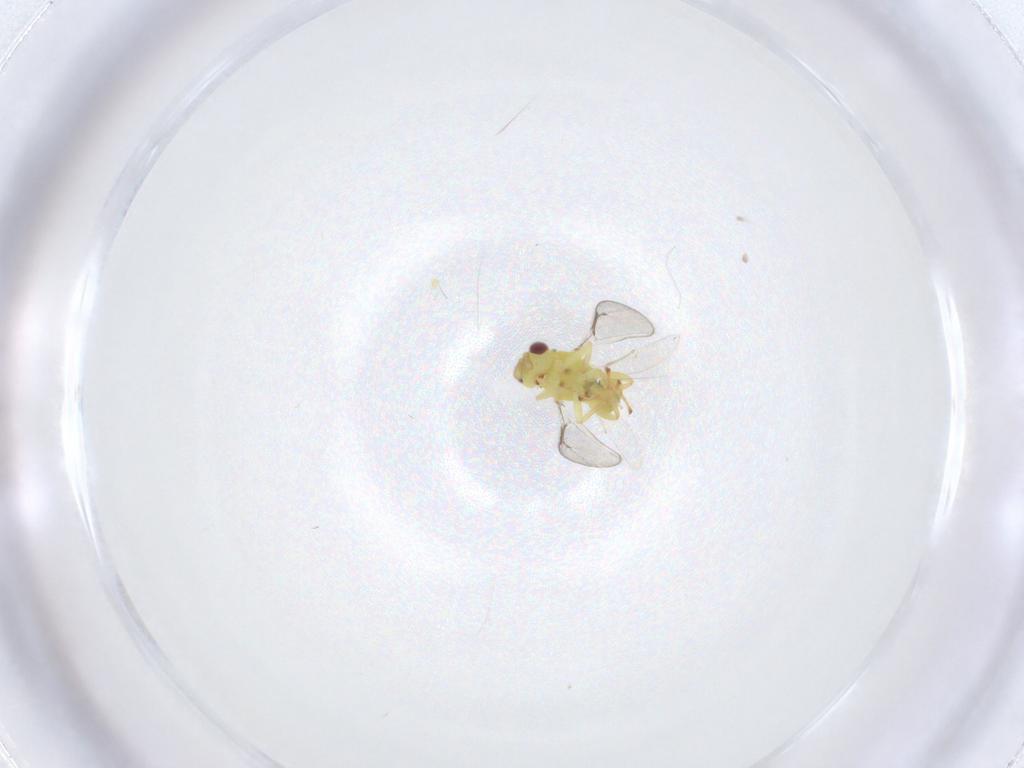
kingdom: Animalia
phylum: Arthropoda
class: Insecta
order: Hymenoptera
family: Eulophidae
